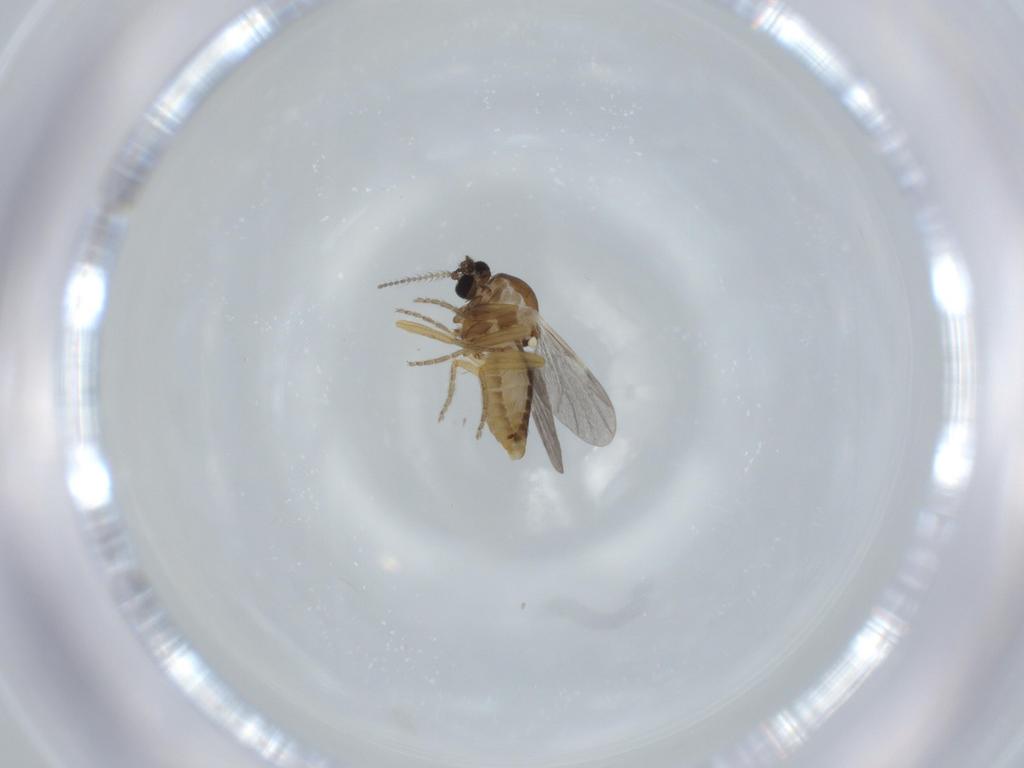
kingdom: Animalia
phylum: Arthropoda
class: Insecta
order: Diptera
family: Ceratopogonidae
